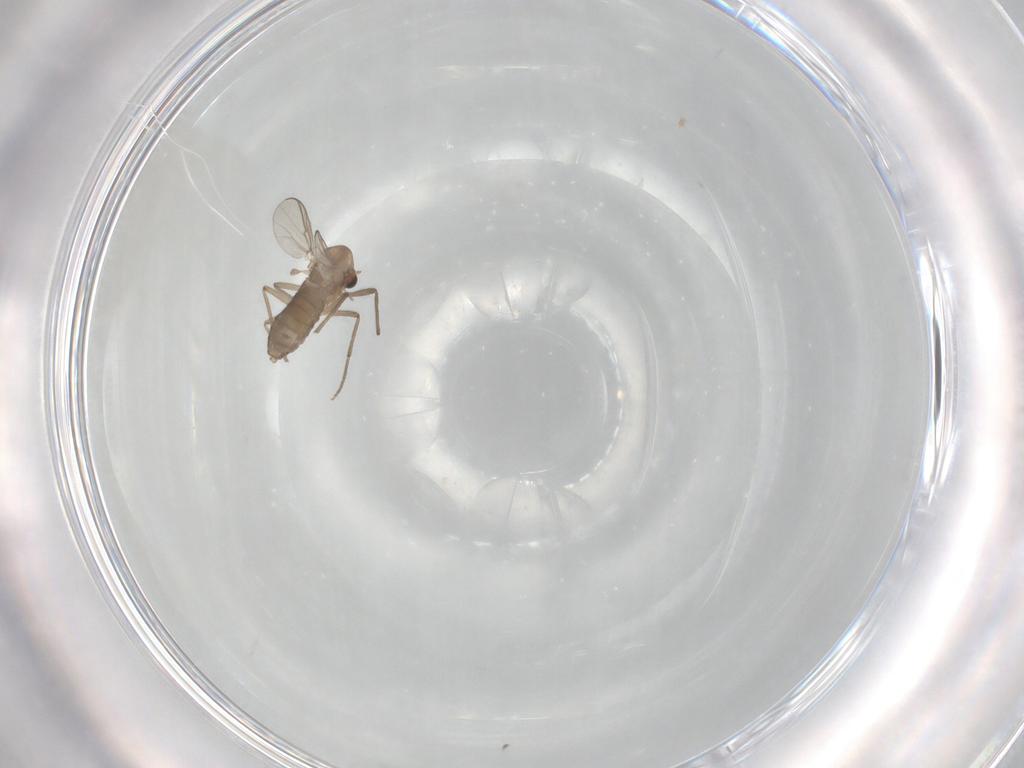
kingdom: Animalia
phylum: Arthropoda
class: Insecta
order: Diptera
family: Chironomidae
